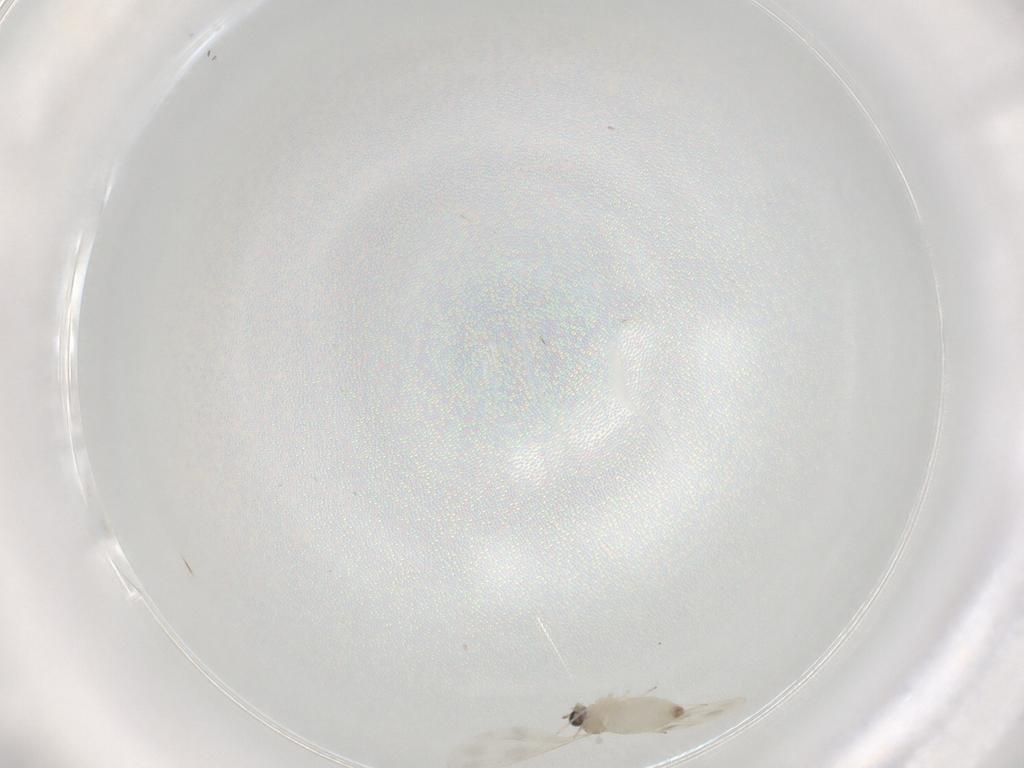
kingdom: Animalia
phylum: Arthropoda
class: Insecta
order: Diptera
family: Cecidomyiidae
